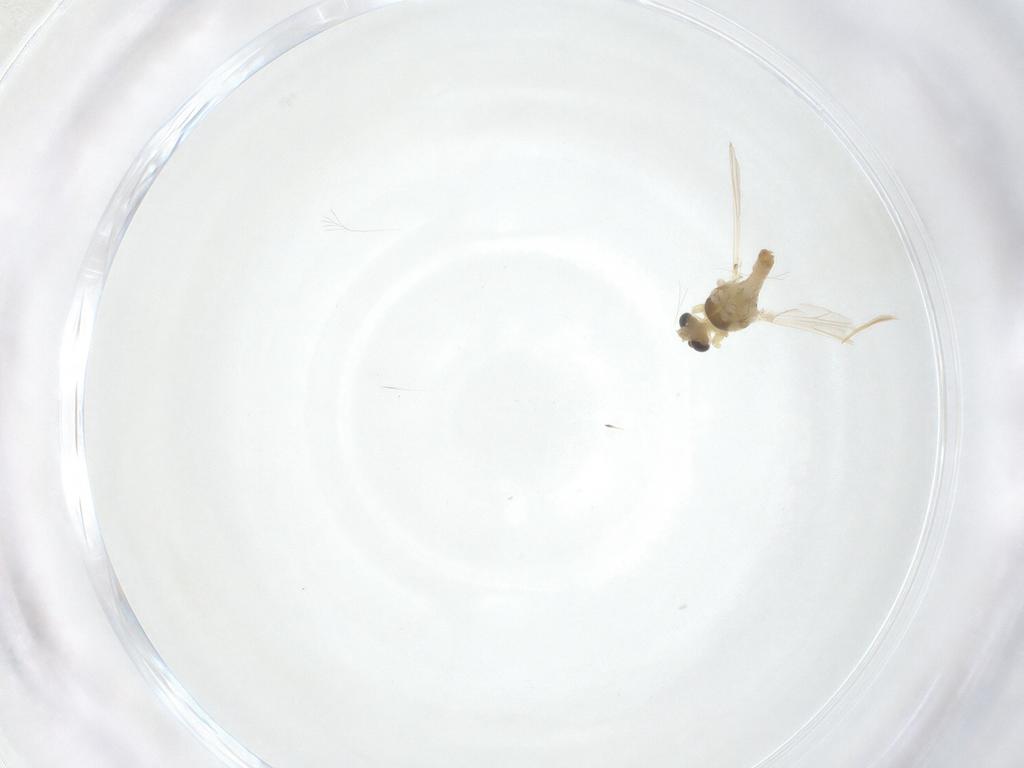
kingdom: Animalia
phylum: Arthropoda
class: Insecta
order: Diptera
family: Chironomidae
